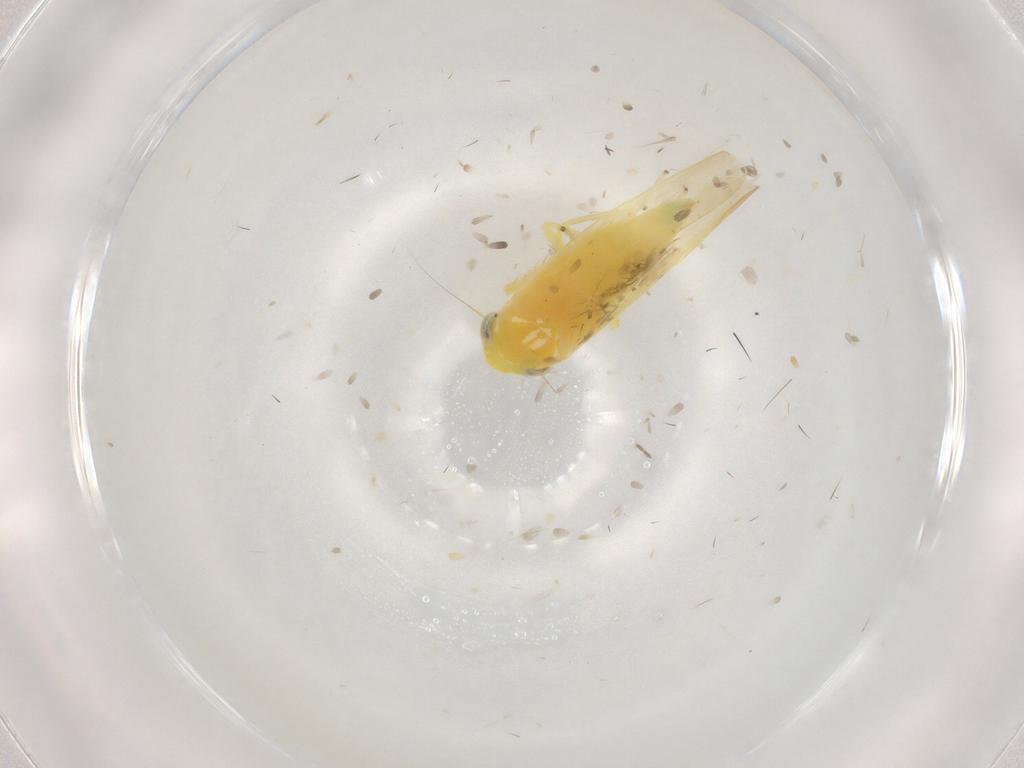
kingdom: Animalia
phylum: Arthropoda
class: Insecta
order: Hemiptera
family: Cicadellidae
